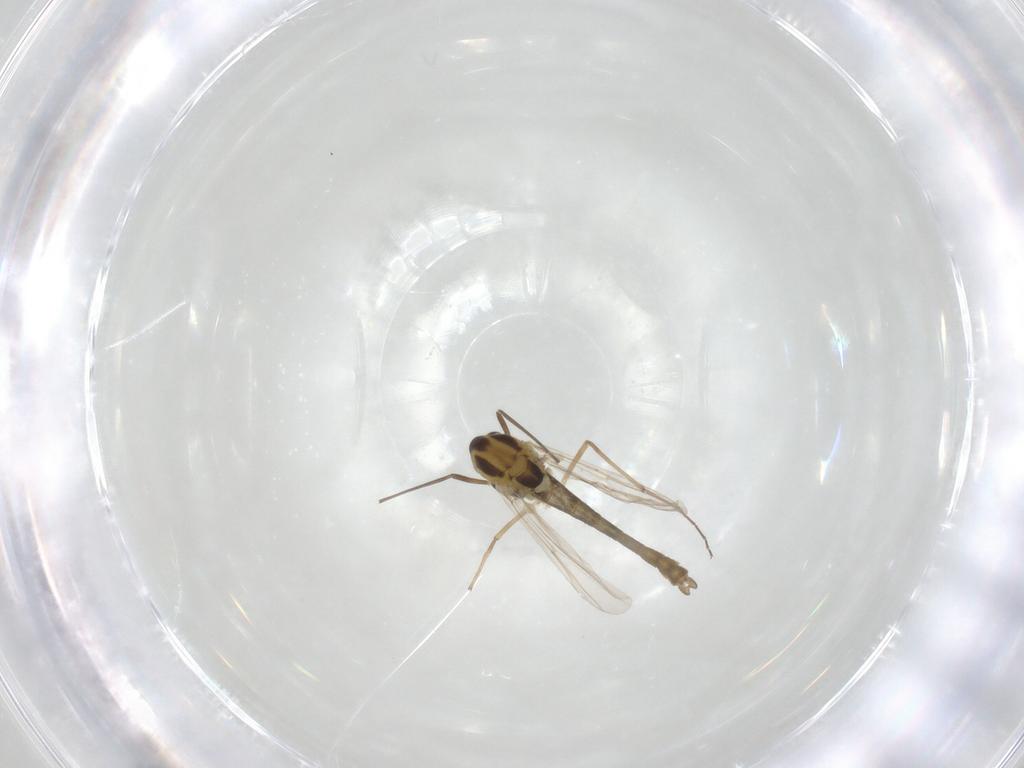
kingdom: Animalia
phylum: Arthropoda
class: Insecta
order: Diptera
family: Chironomidae
